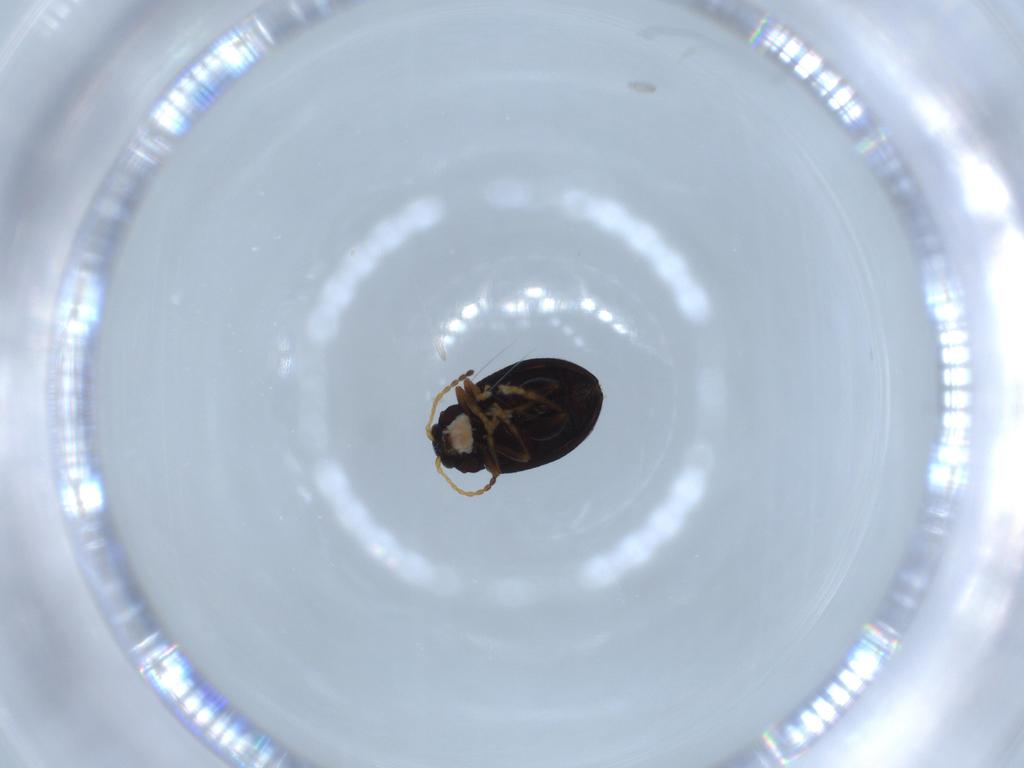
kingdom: Animalia
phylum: Arthropoda
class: Insecta
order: Coleoptera
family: Chrysomelidae
